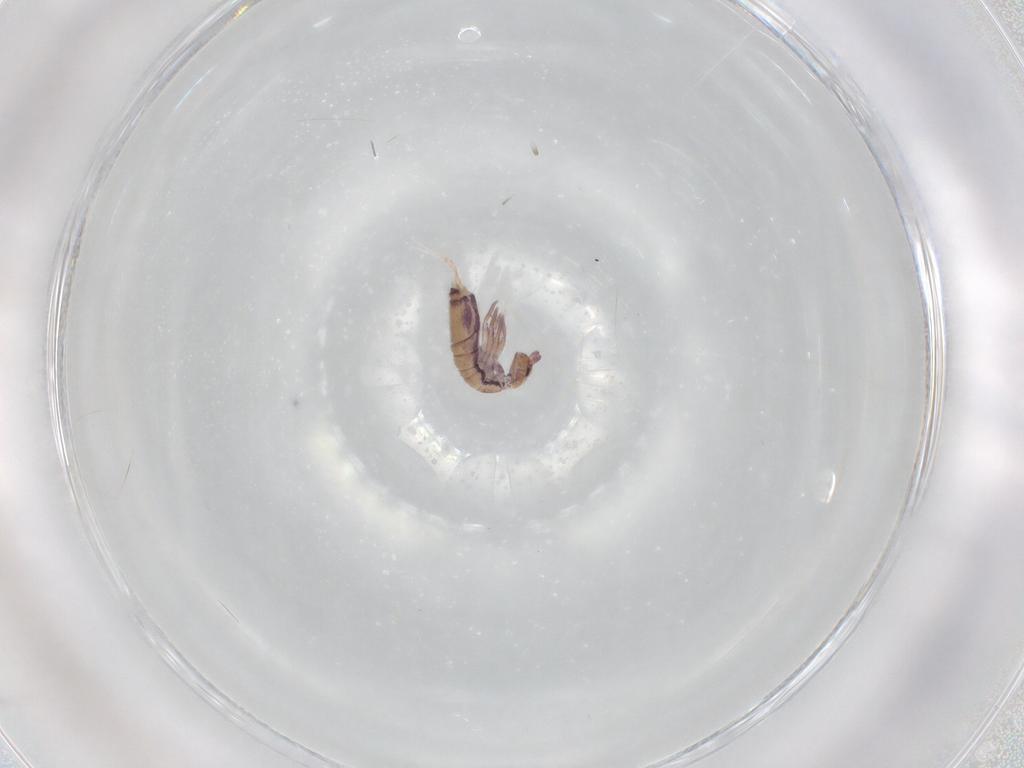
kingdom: Animalia
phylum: Arthropoda
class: Collembola
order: Entomobryomorpha
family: Entomobryidae
